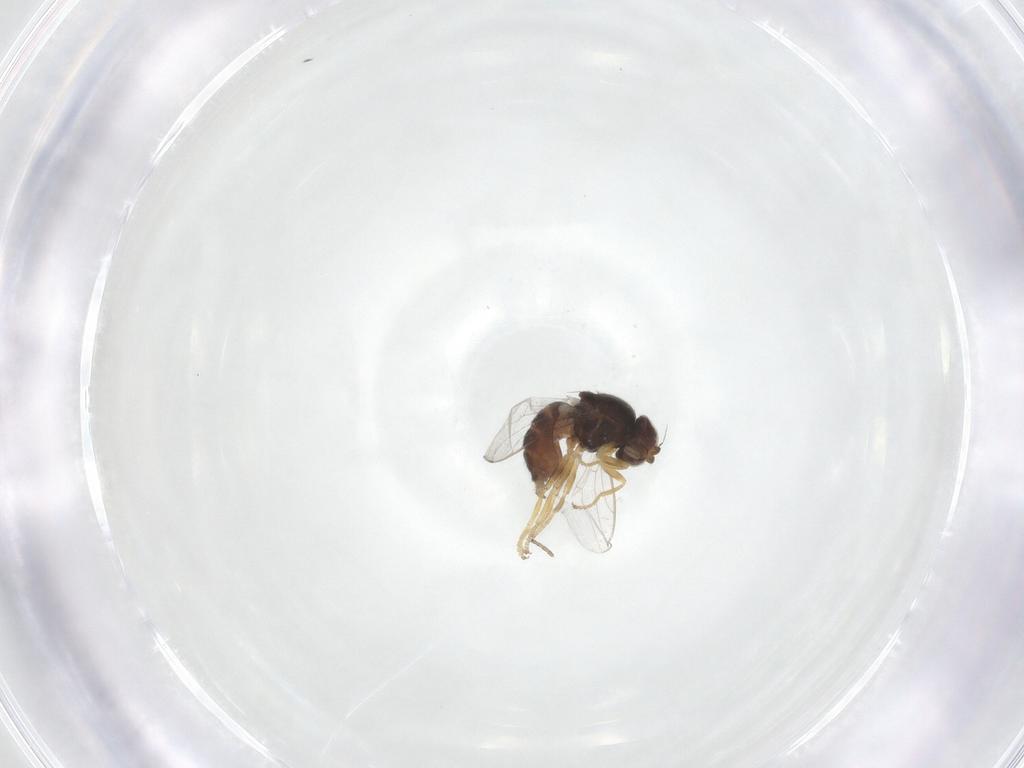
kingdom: Animalia
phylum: Arthropoda
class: Insecta
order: Diptera
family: Chloropidae
